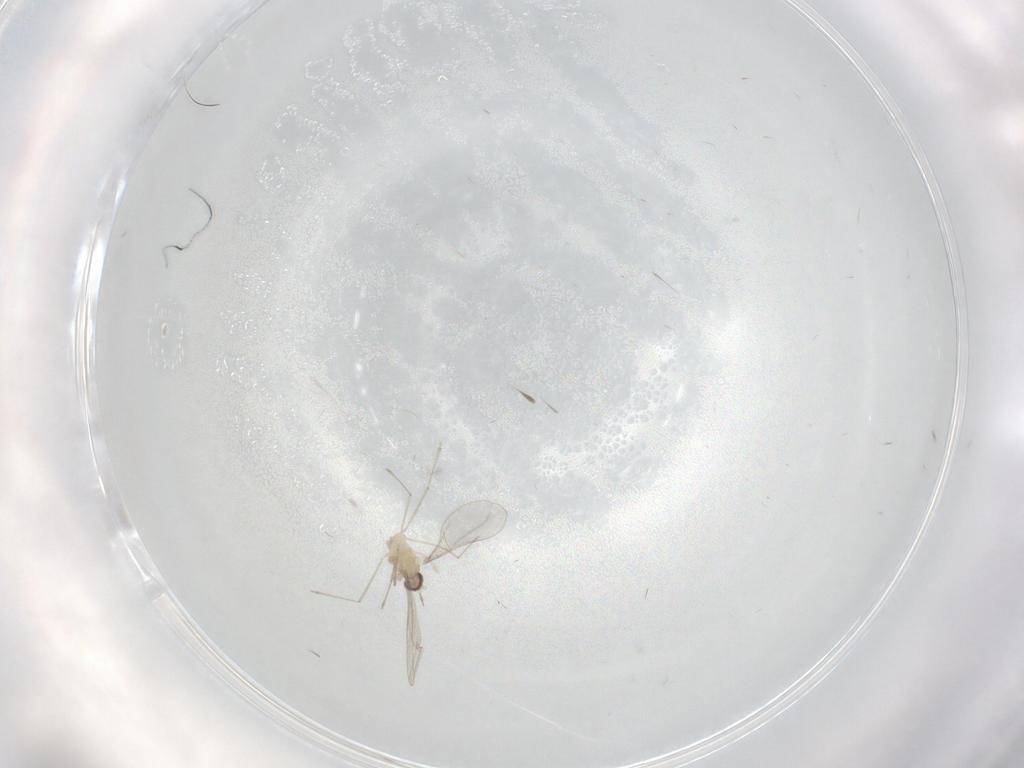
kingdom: Animalia
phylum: Arthropoda
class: Insecta
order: Diptera
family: Cecidomyiidae
